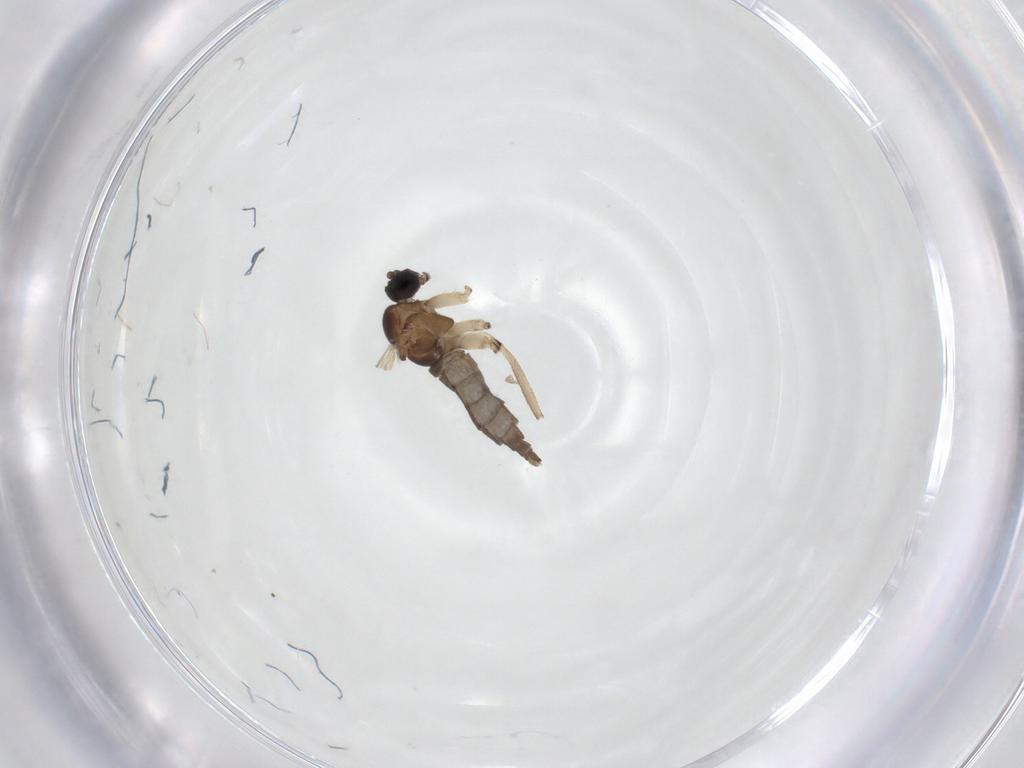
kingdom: Animalia
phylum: Arthropoda
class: Insecta
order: Diptera
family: Sciaridae
